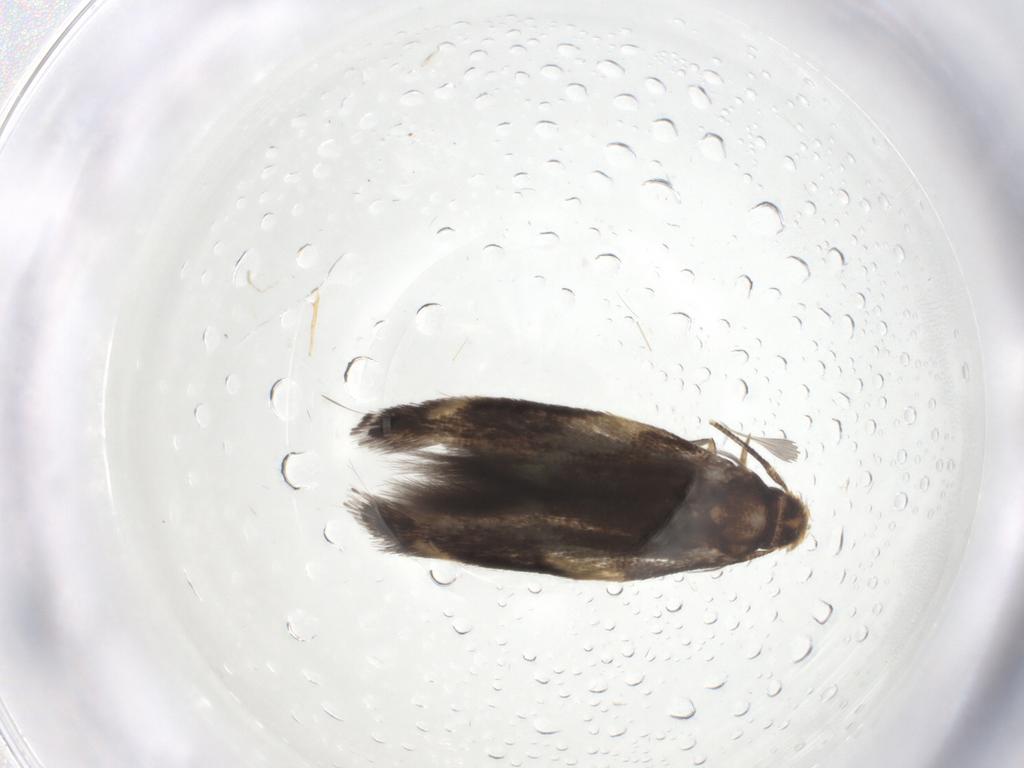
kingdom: Animalia
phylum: Arthropoda
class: Insecta
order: Lepidoptera
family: Gelechiidae
